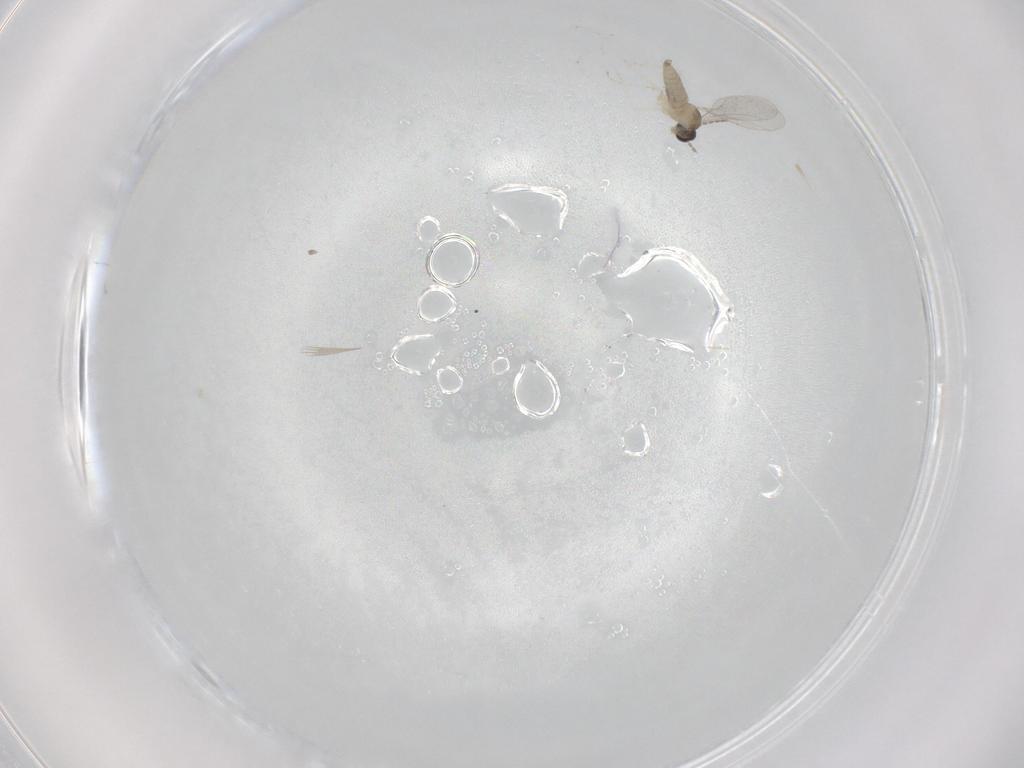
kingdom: Animalia
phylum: Arthropoda
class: Insecta
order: Diptera
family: Cecidomyiidae
